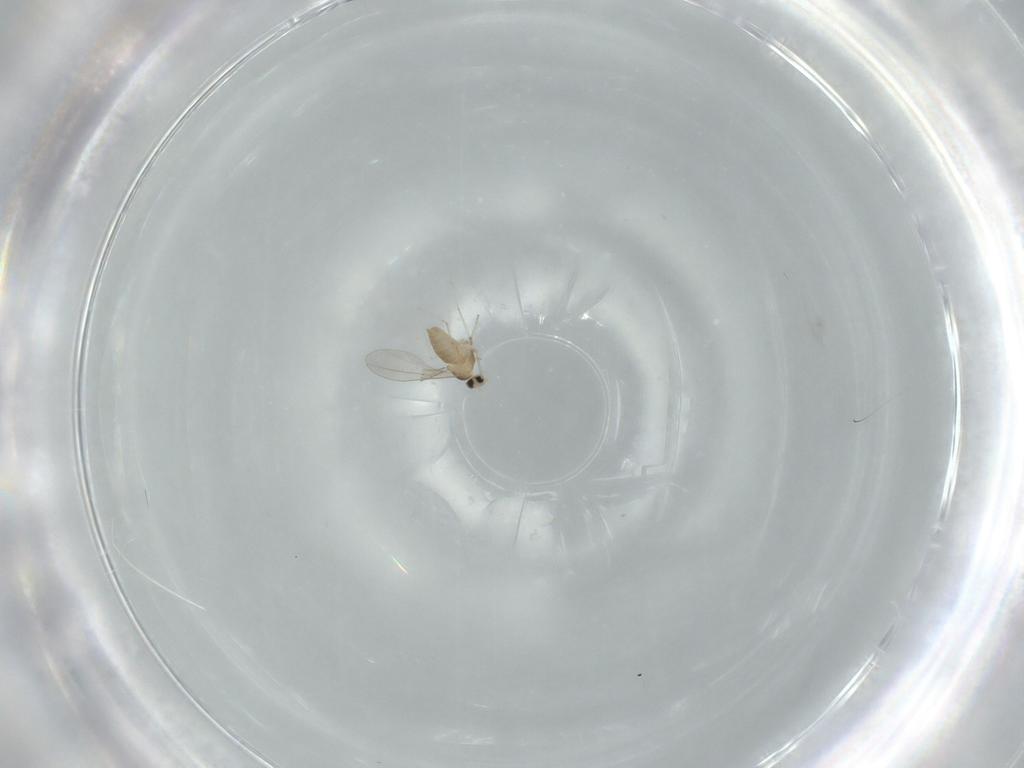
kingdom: Animalia
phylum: Arthropoda
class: Insecta
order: Diptera
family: Cecidomyiidae
